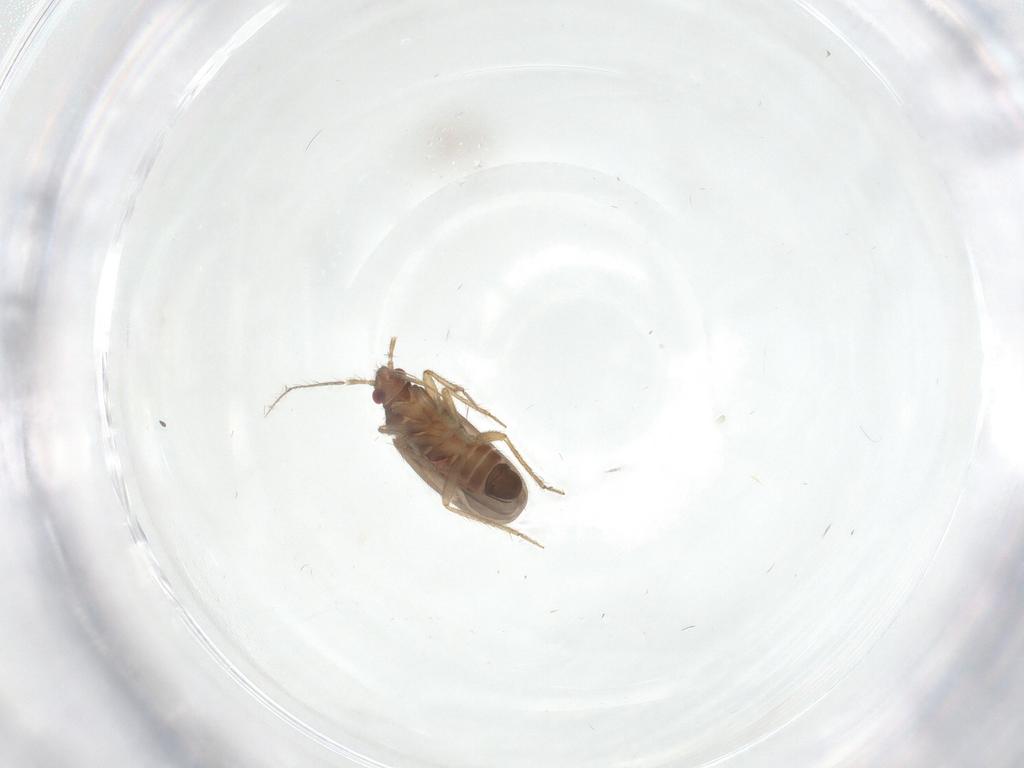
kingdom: Animalia
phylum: Arthropoda
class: Insecta
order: Hemiptera
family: Ceratocombidae
